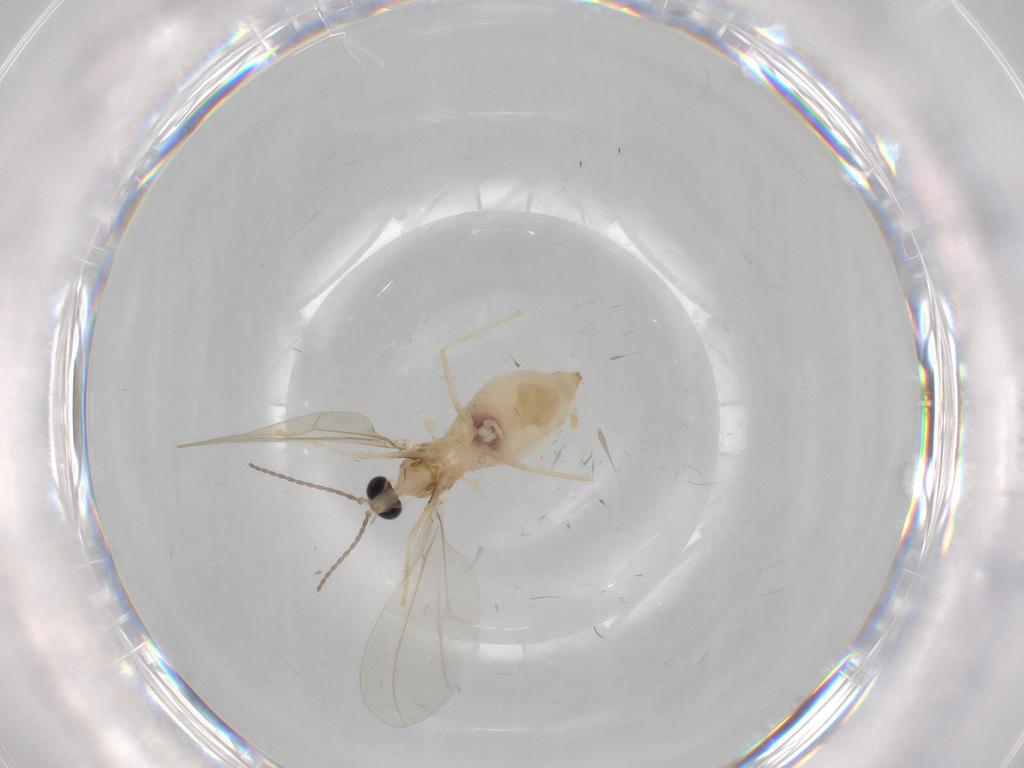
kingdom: Animalia
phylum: Arthropoda
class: Insecta
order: Diptera
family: Cecidomyiidae
